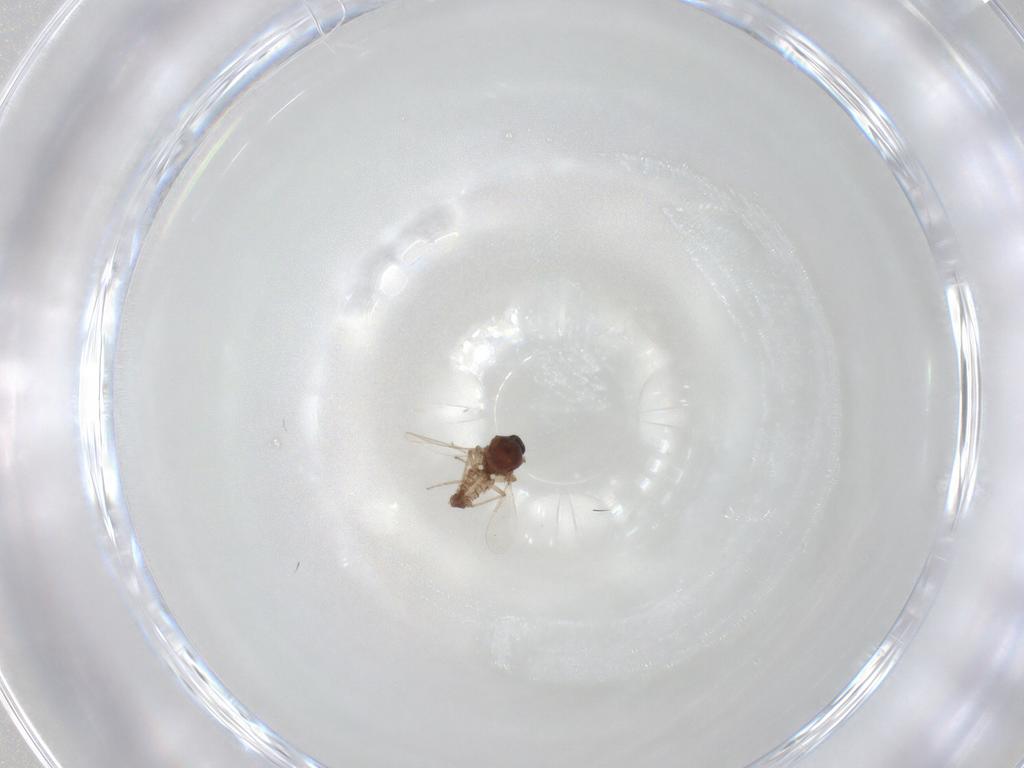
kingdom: Animalia
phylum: Arthropoda
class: Insecta
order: Diptera
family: Ceratopogonidae
